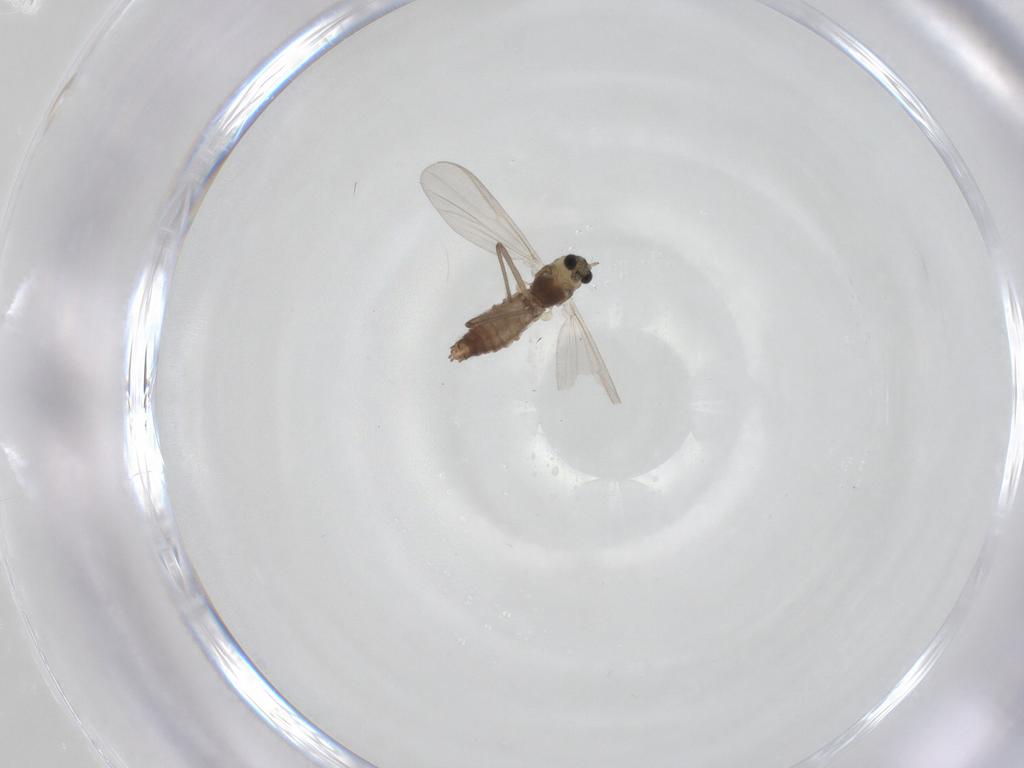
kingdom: Animalia
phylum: Arthropoda
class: Insecta
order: Diptera
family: Chironomidae
